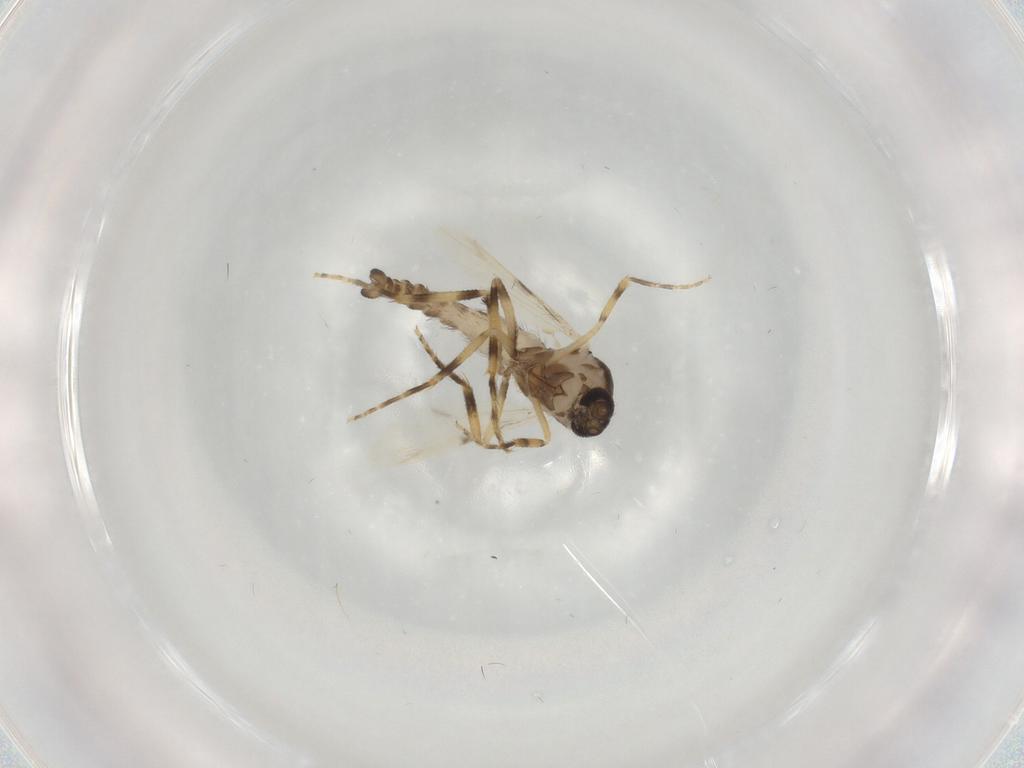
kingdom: Animalia
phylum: Arthropoda
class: Insecta
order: Diptera
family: Ceratopogonidae
